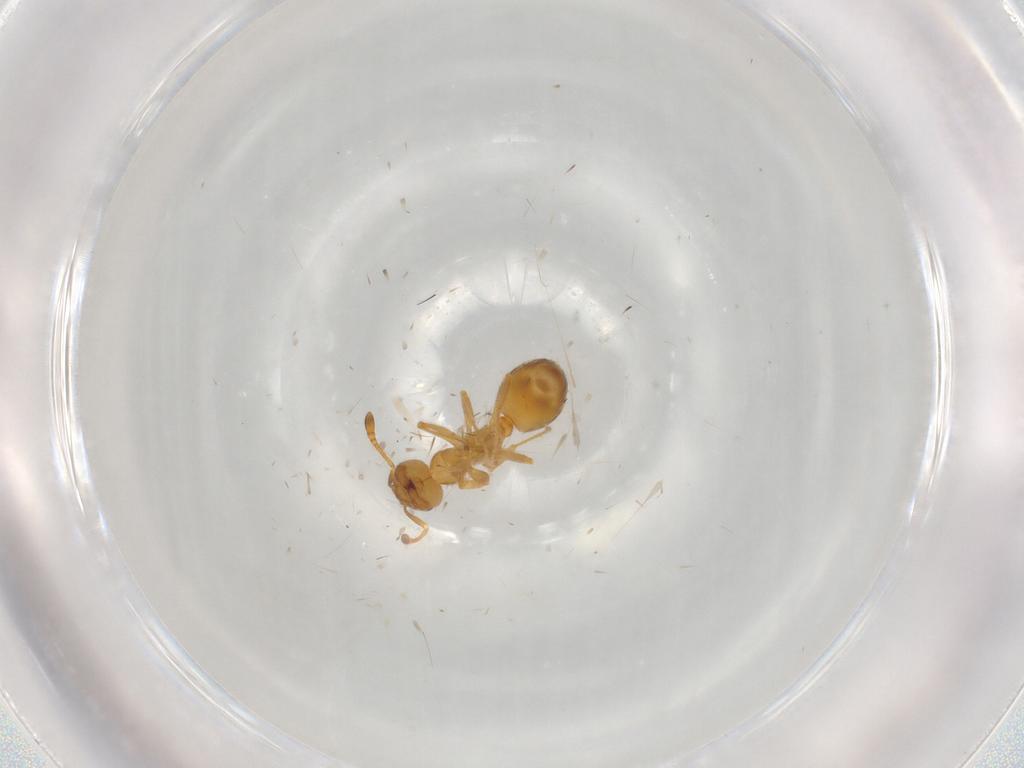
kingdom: Animalia
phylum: Arthropoda
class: Insecta
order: Hymenoptera
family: Formicidae
